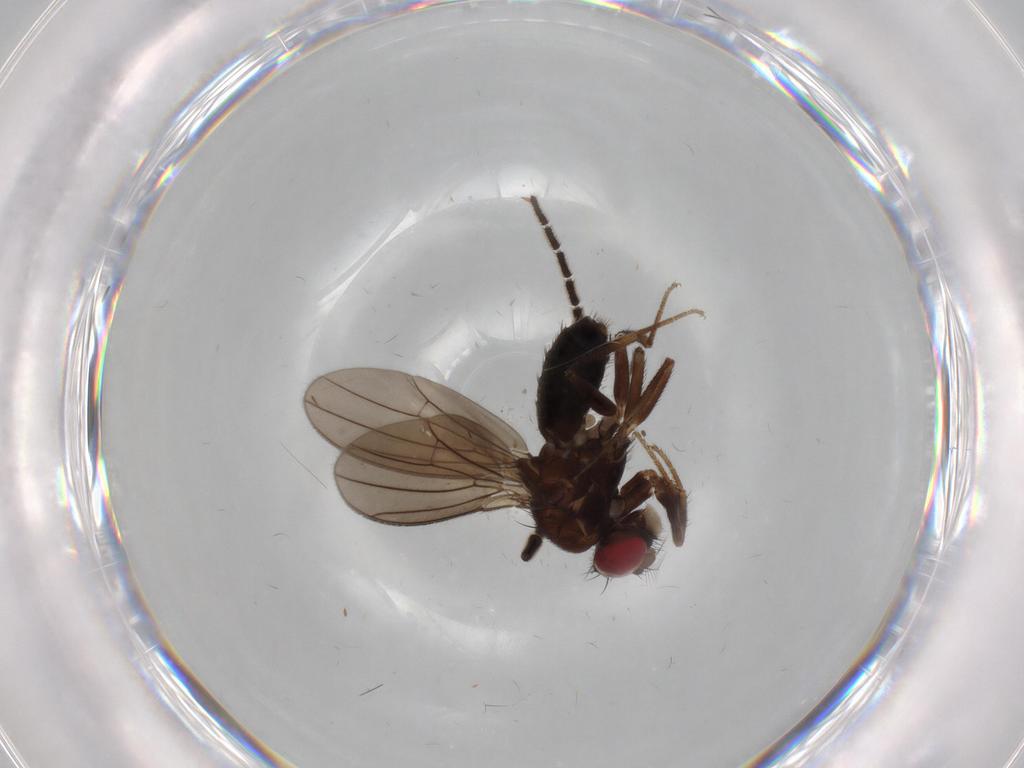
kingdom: Animalia
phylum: Arthropoda
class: Insecta
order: Diptera
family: Drosophilidae
